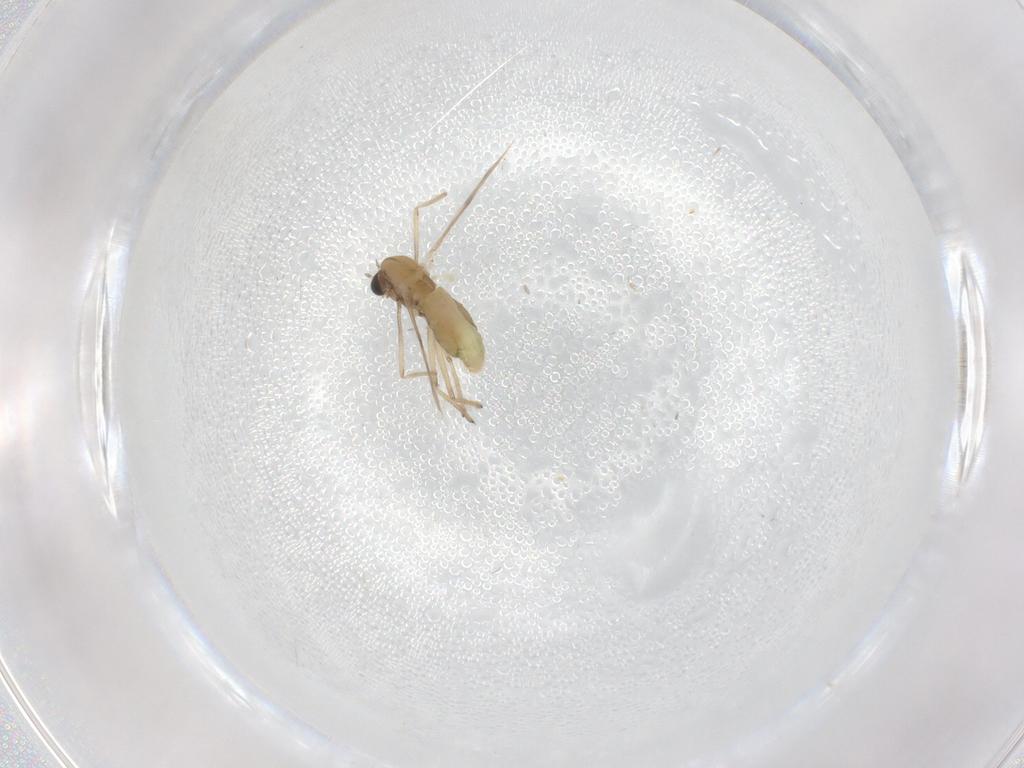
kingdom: Animalia
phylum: Arthropoda
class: Insecta
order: Diptera
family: Chironomidae
